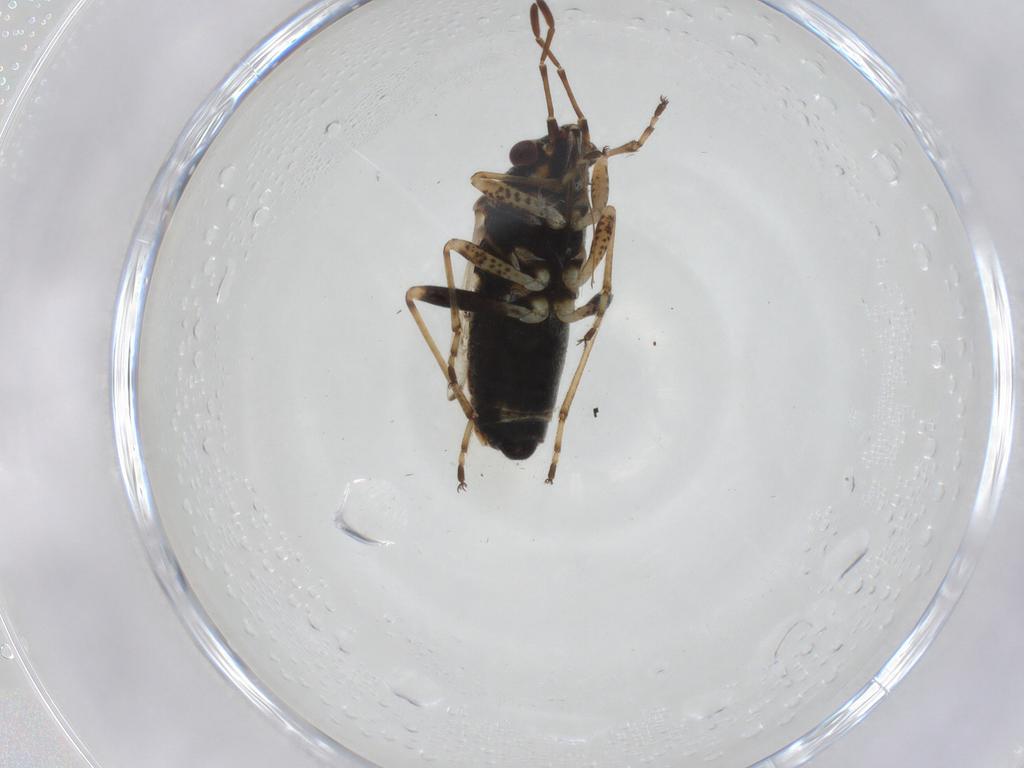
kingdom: Animalia
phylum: Arthropoda
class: Insecta
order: Hemiptera
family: Lygaeidae
